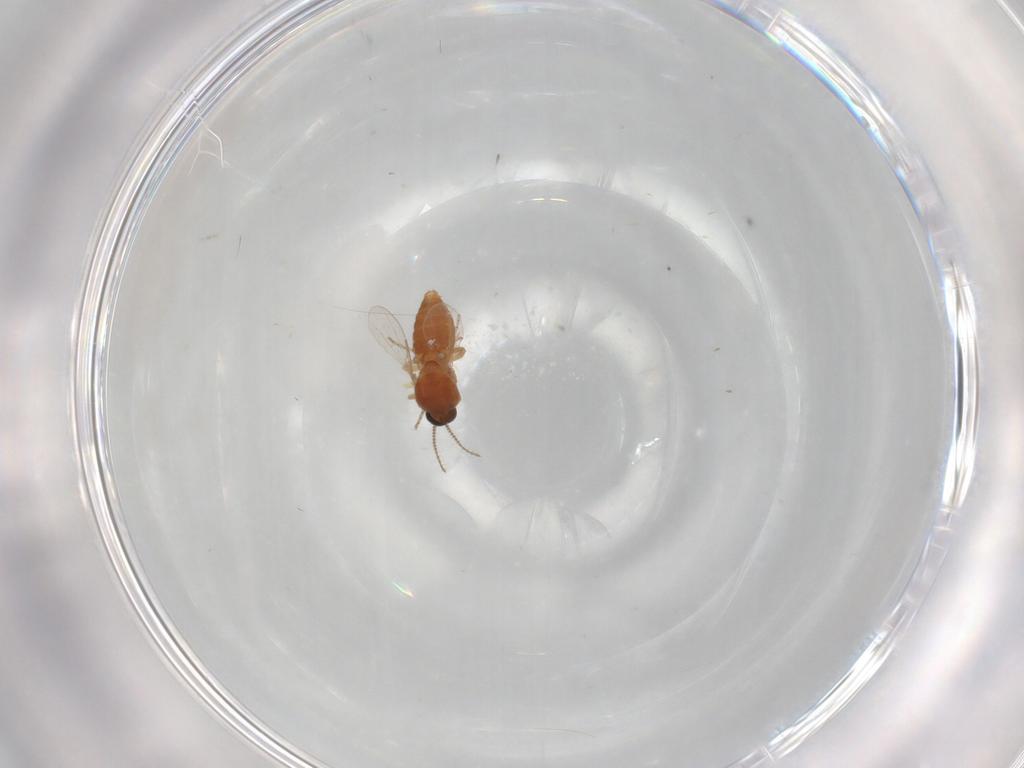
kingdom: Animalia
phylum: Arthropoda
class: Insecta
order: Diptera
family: Ceratopogonidae
